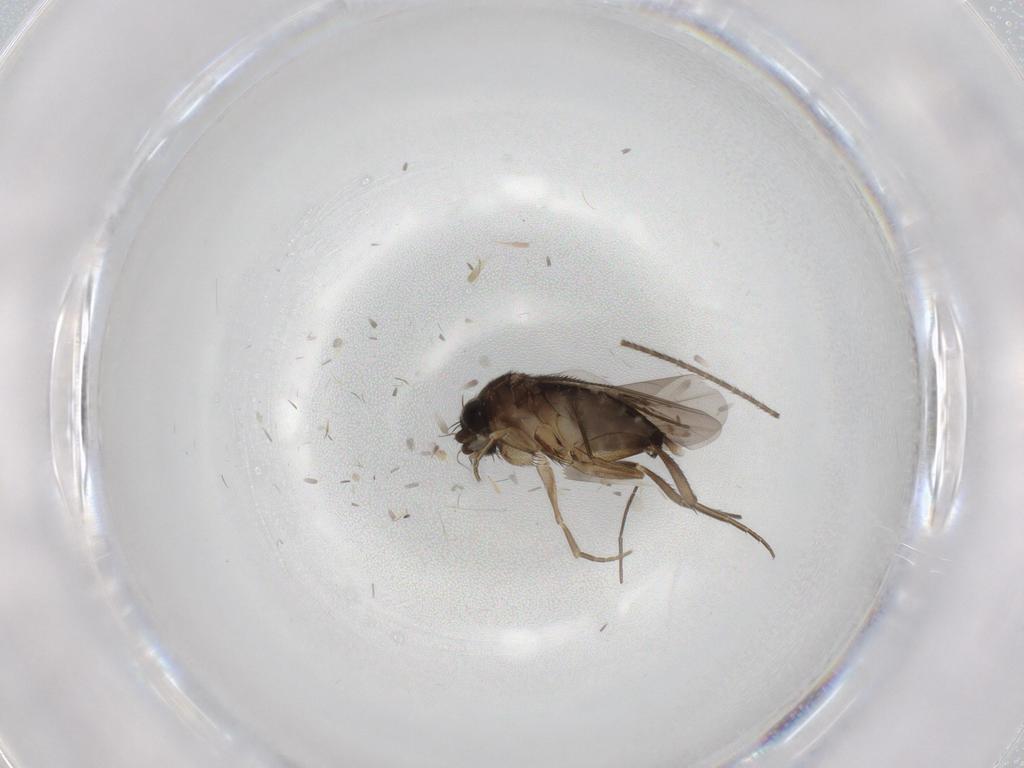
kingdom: Animalia
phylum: Arthropoda
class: Insecta
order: Diptera
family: Phoridae
